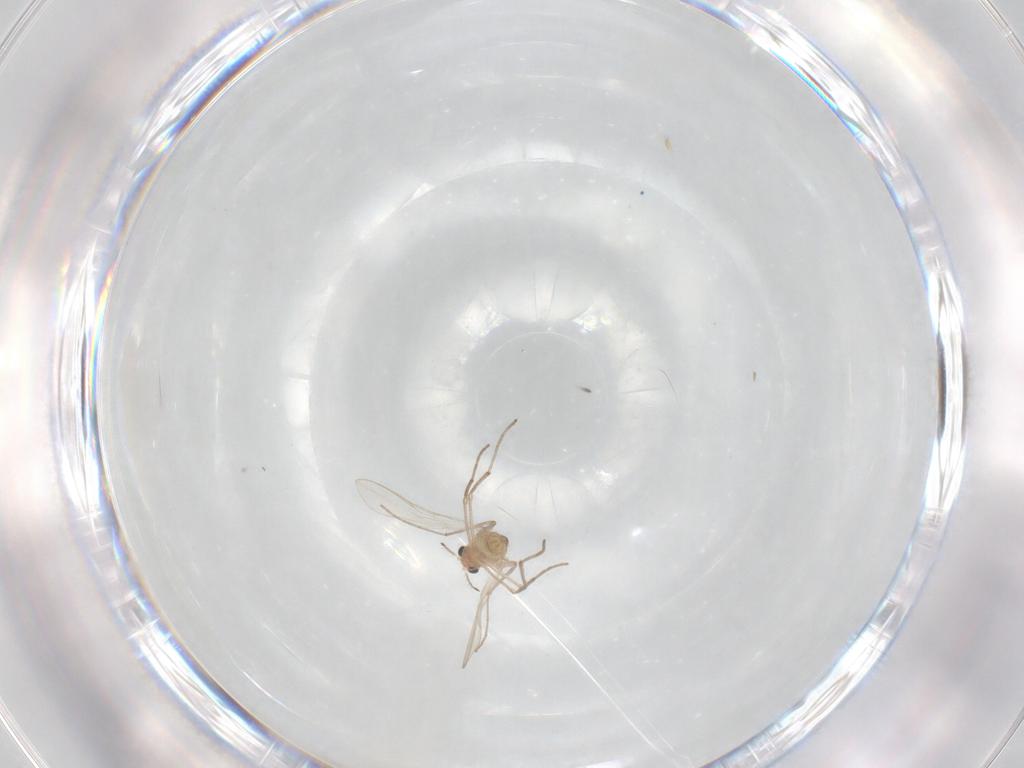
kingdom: Animalia
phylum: Arthropoda
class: Insecta
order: Diptera
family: Chironomidae
